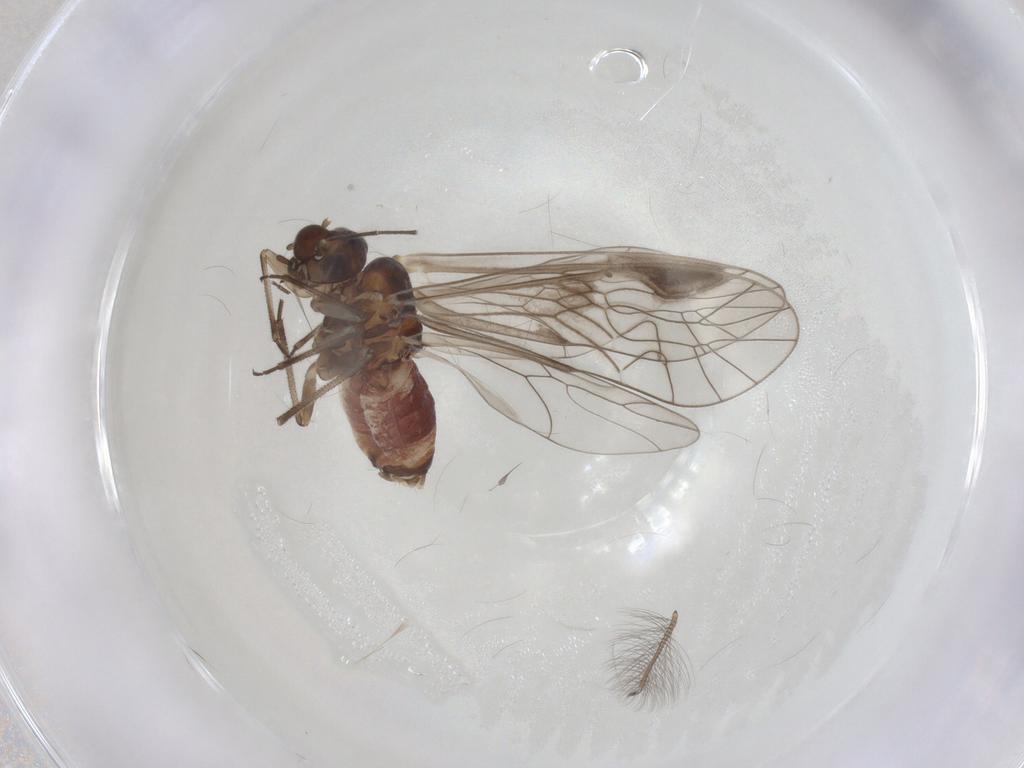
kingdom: Animalia
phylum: Arthropoda
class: Insecta
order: Diptera
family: Chironomidae
